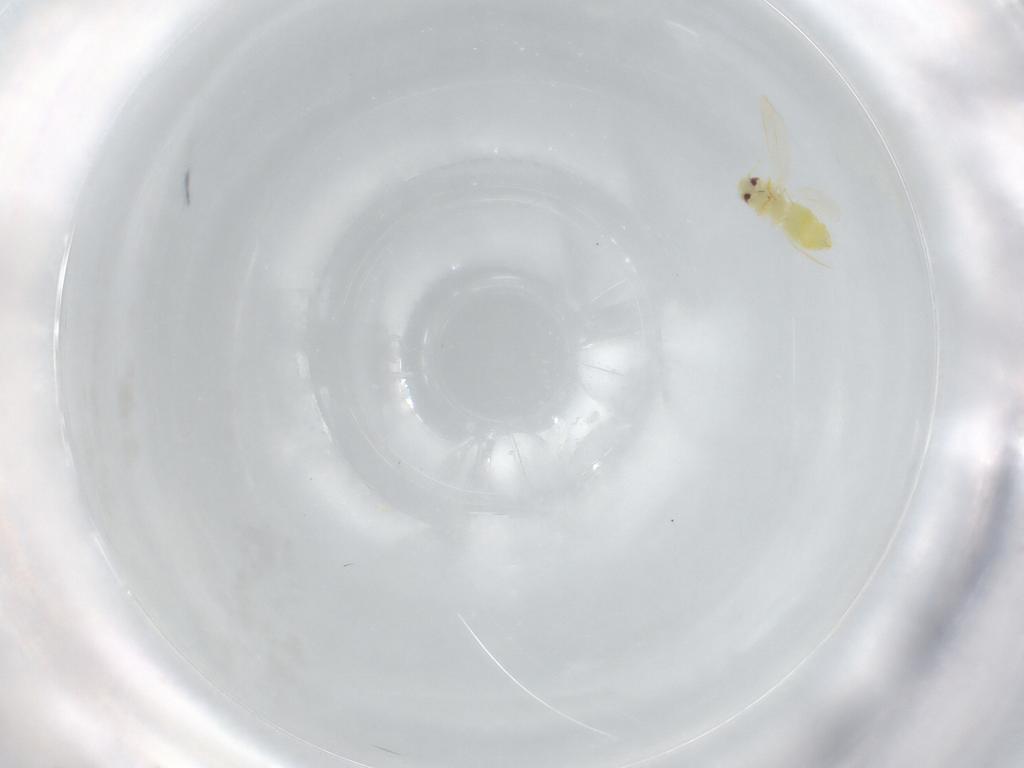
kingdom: Animalia
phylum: Arthropoda
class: Insecta
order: Hemiptera
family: Aleyrodidae
